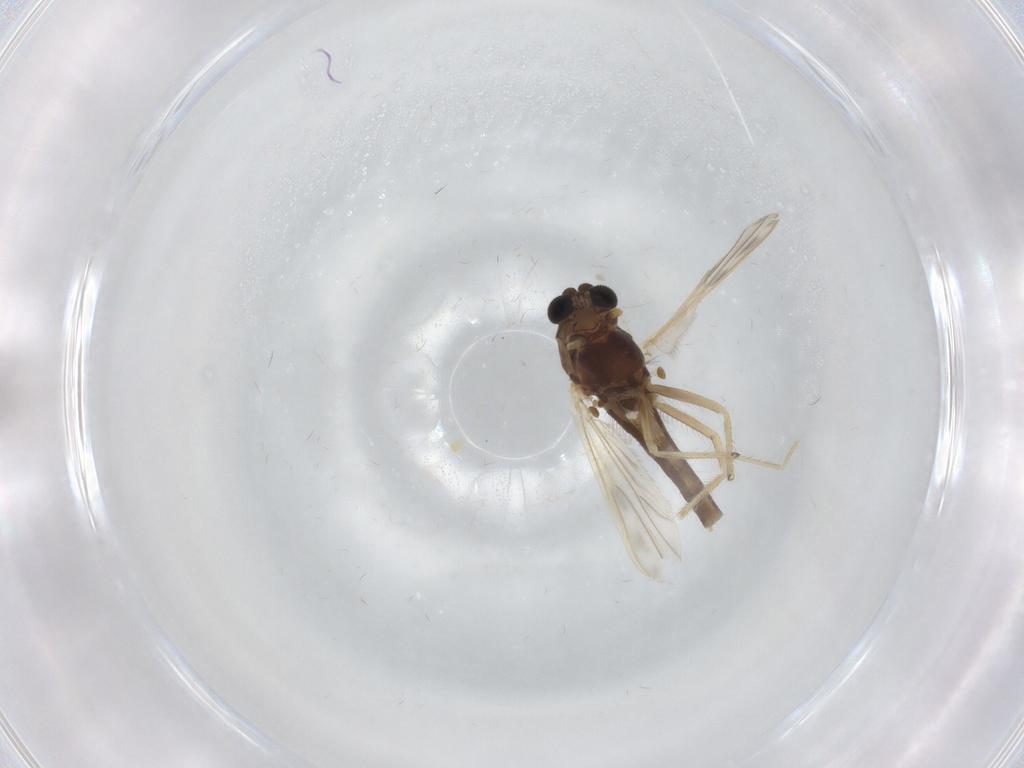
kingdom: Animalia
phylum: Arthropoda
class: Insecta
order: Diptera
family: Chironomidae
